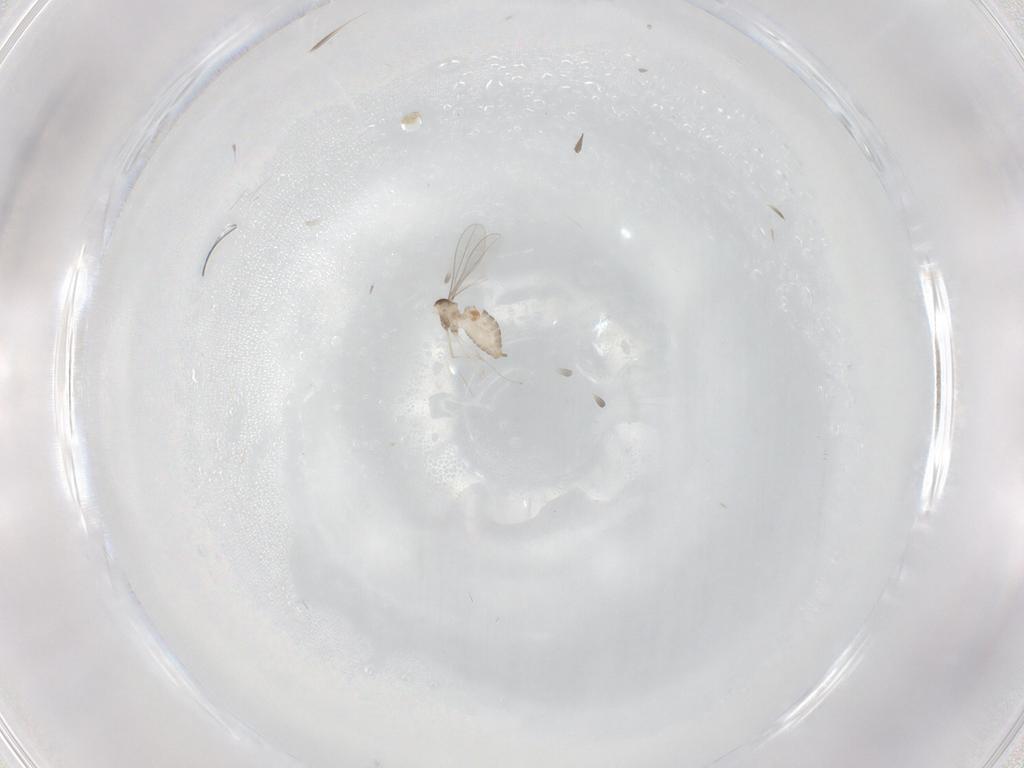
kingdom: Animalia
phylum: Arthropoda
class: Insecta
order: Diptera
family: Cecidomyiidae
